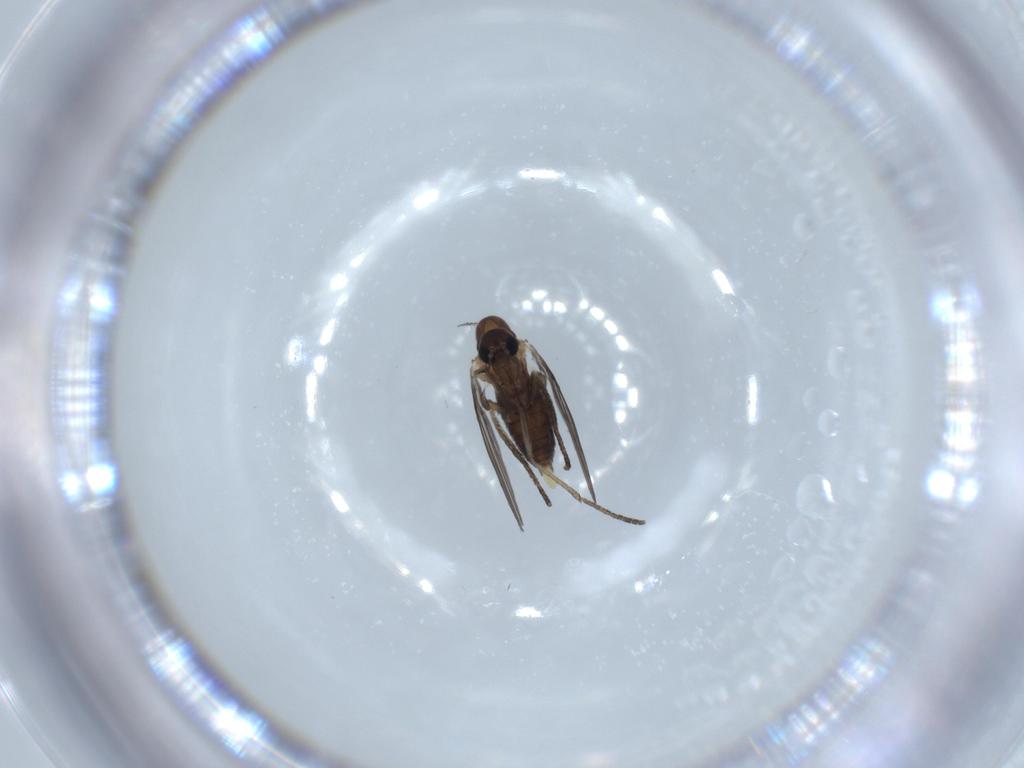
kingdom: Animalia
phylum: Arthropoda
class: Insecta
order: Diptera
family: Psychodidae
